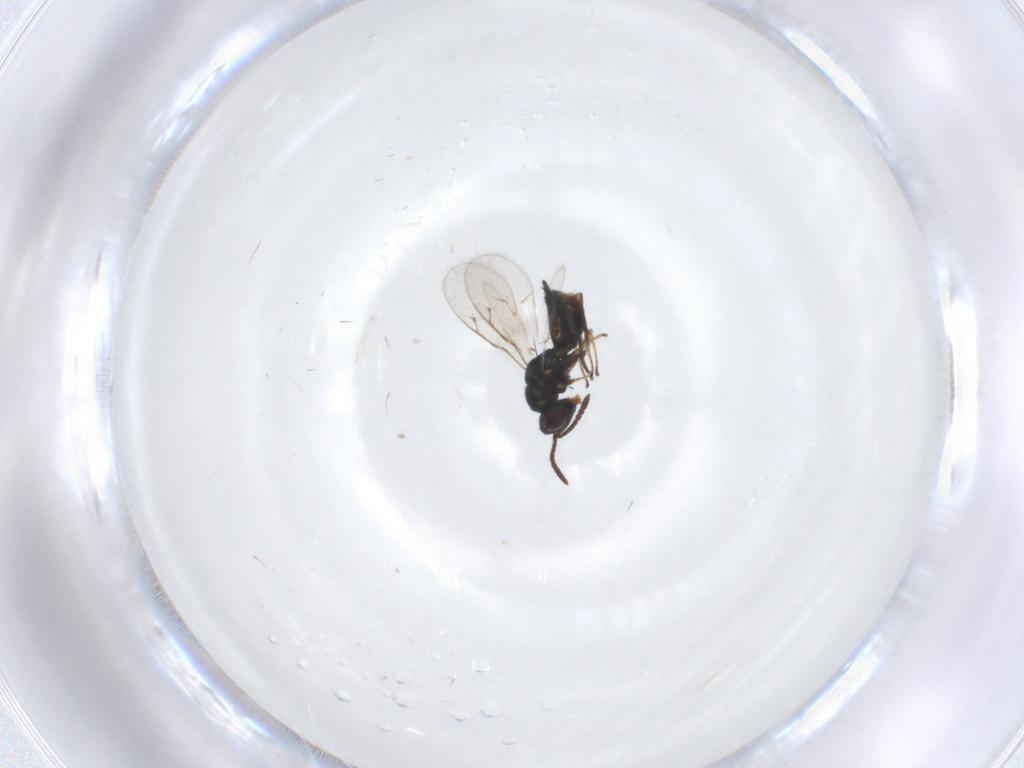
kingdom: Animalia
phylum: Arthropoda
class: Insecta
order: Hymenoptera
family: Pteromalidae
